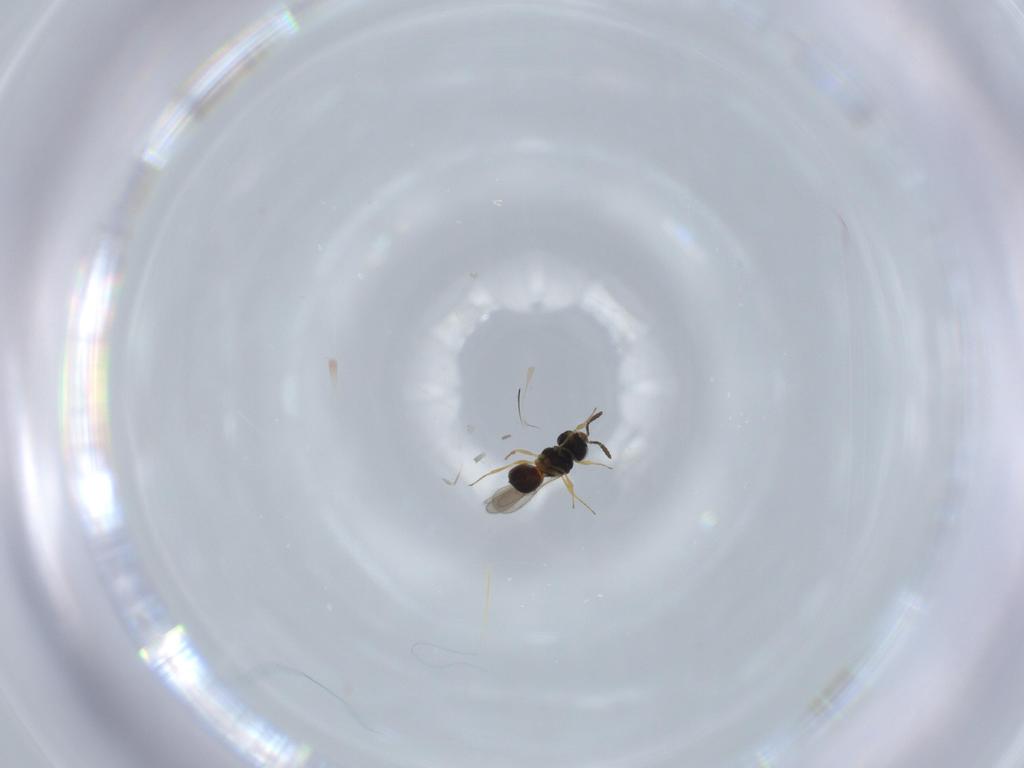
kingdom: Animalia
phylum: Arthropoda
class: Insecta
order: Hymenoptera
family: Scelionidae
